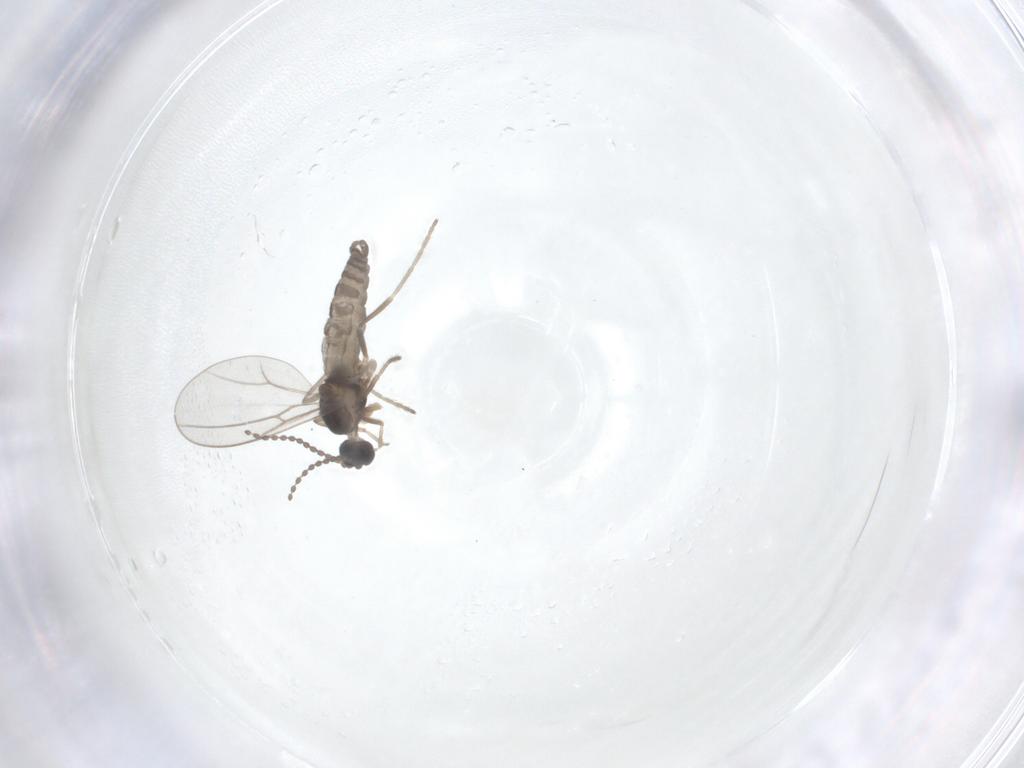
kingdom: Animalia
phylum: Arthropoda
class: Insecta
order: Diptera
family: Cecidomyiidae
